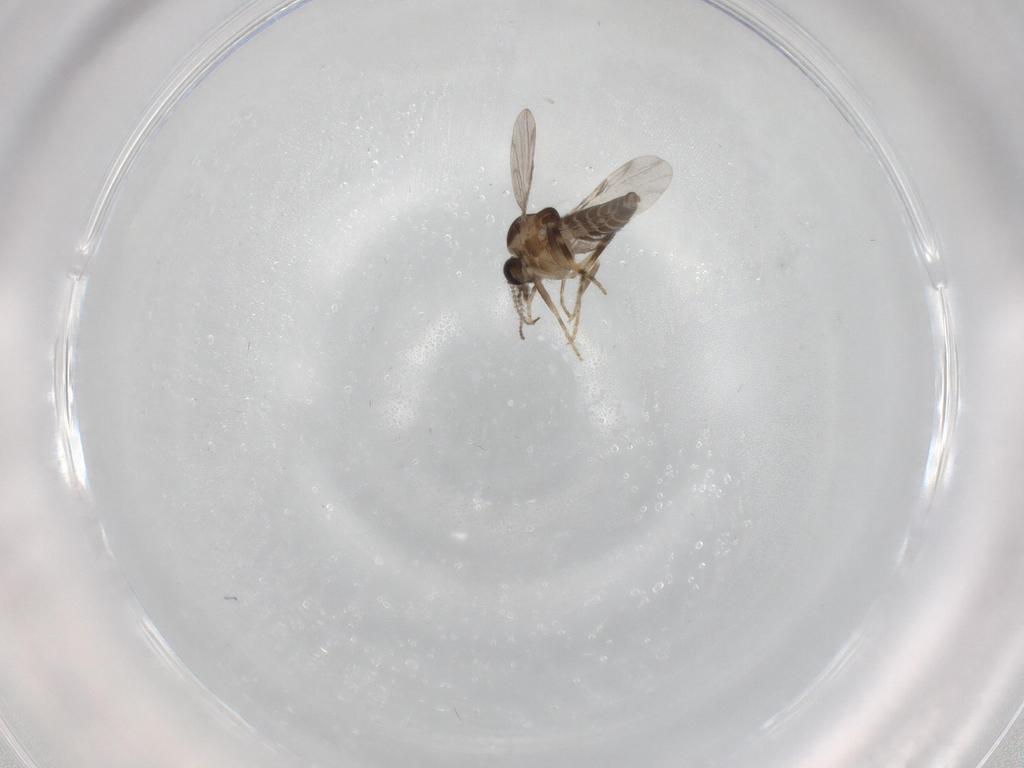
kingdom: Animalia
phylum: Arthropoda
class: Insecta
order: Diptera
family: Ceratopogonidae
